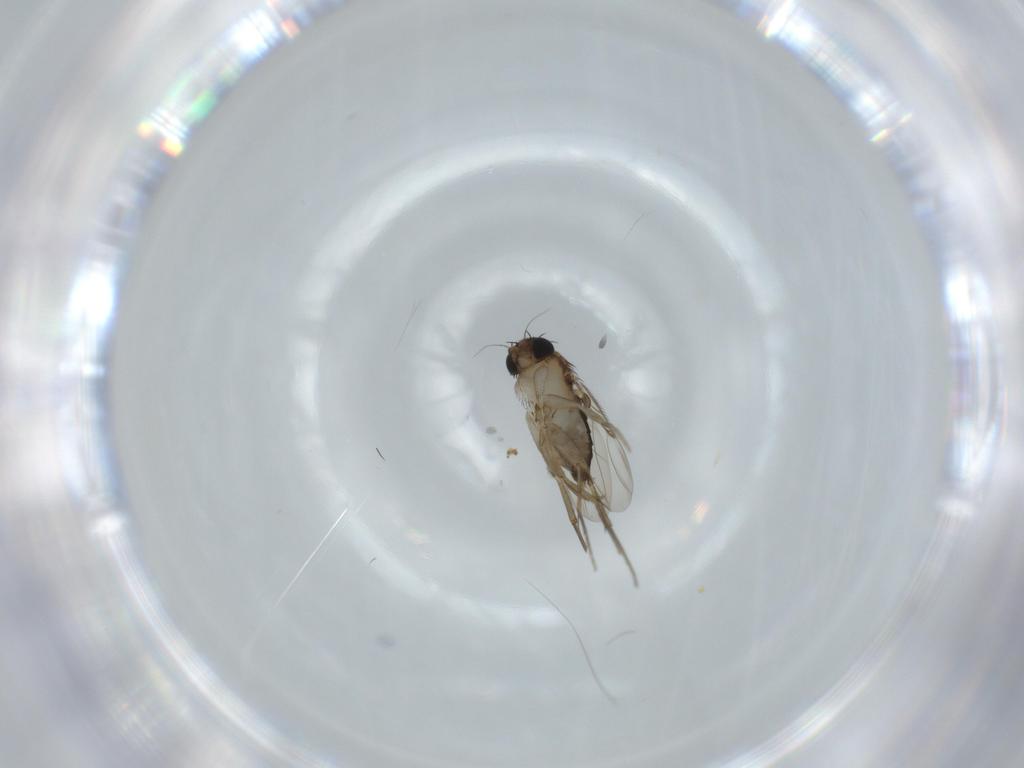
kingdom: Animalia
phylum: Arthropoda
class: Insecta
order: Diptera
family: Phoridae
